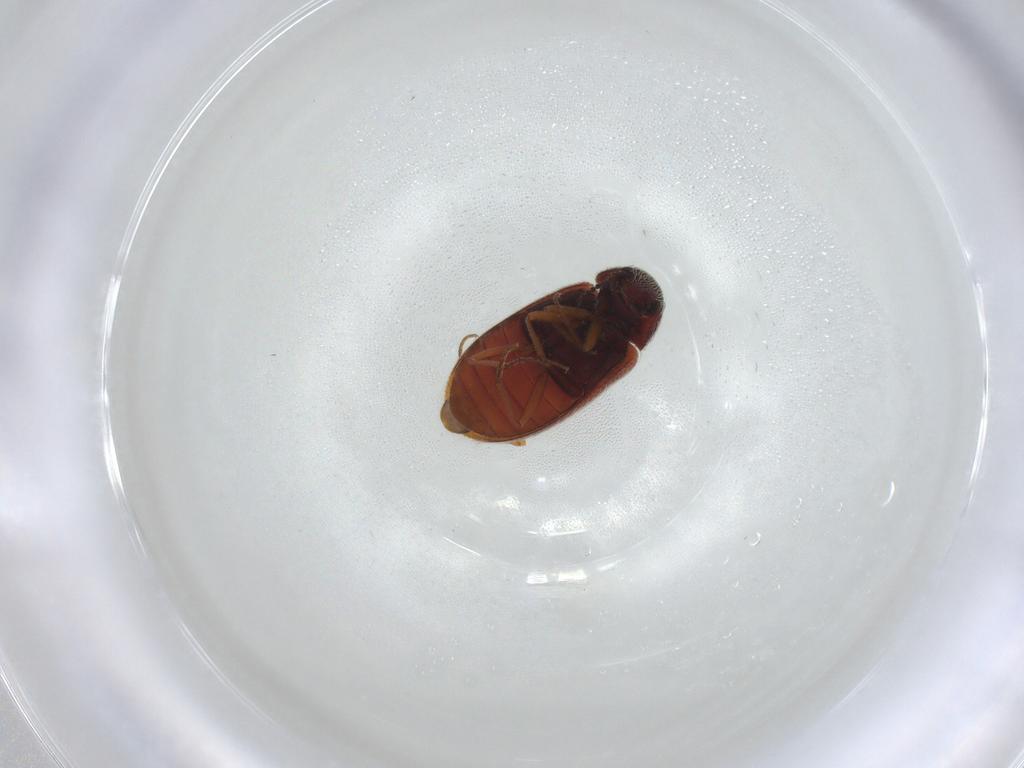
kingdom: Animalia
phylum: Arthropoda
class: Insecta
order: Coleoptera
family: Rhadalidae
